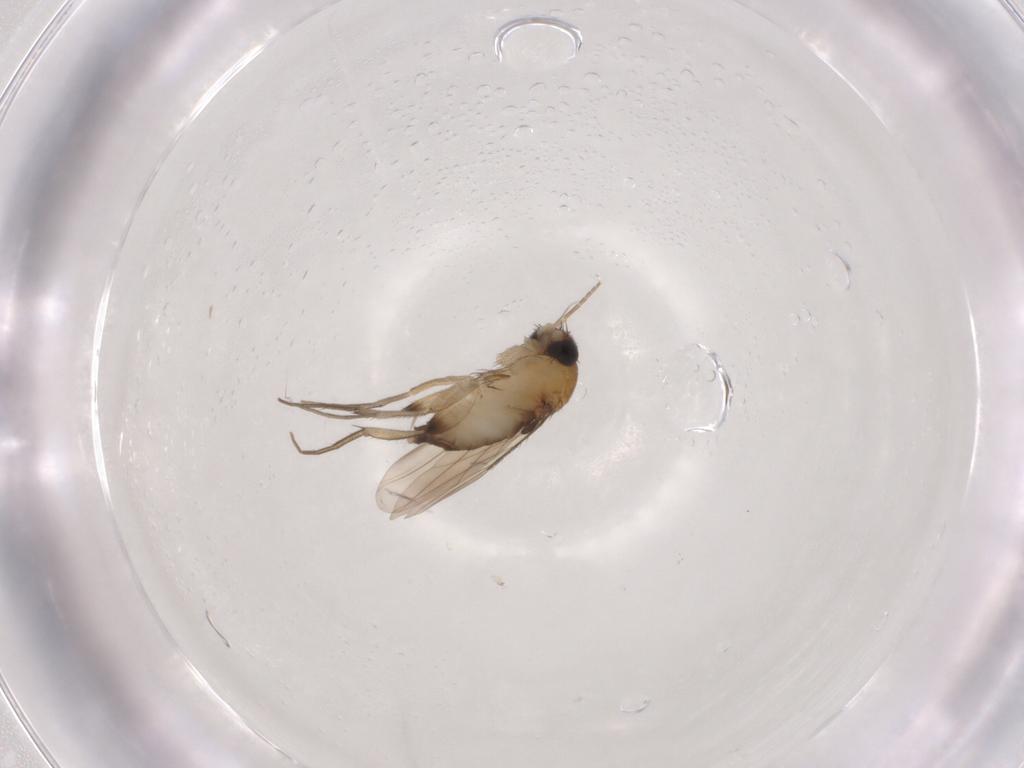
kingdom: Animalia
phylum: Arthropoda
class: Insecta
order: Diptera
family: Phoridae
